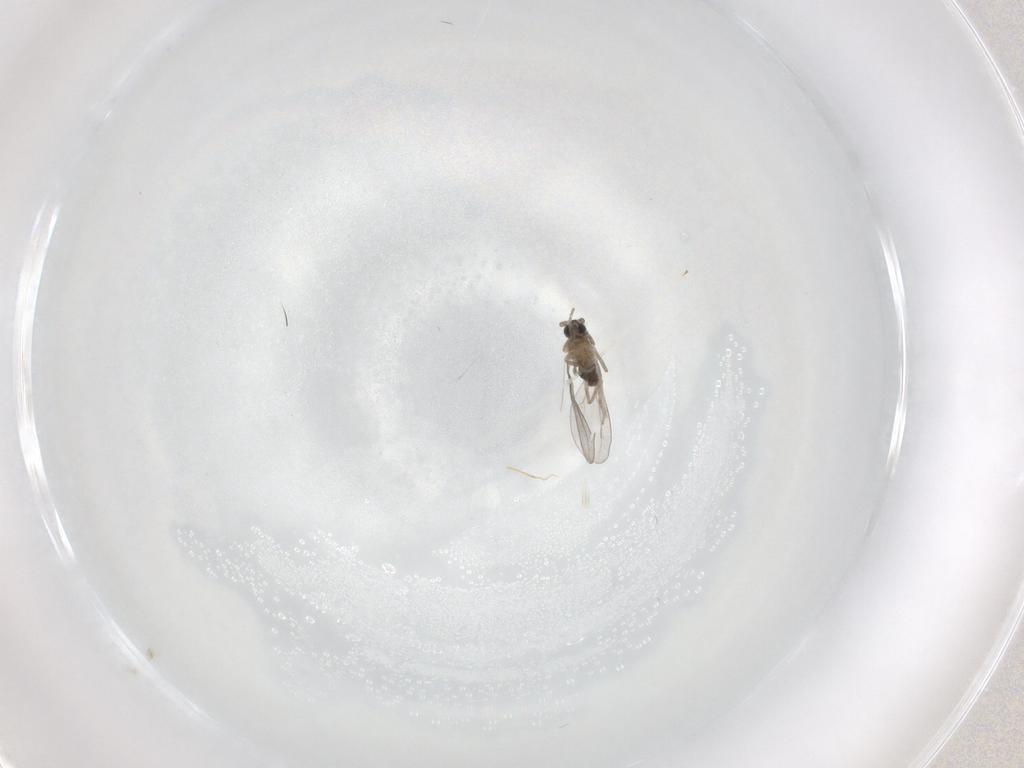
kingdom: Animalia
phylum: Arthropoda
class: Insecta
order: Diptera
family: Cecidomyiidae
